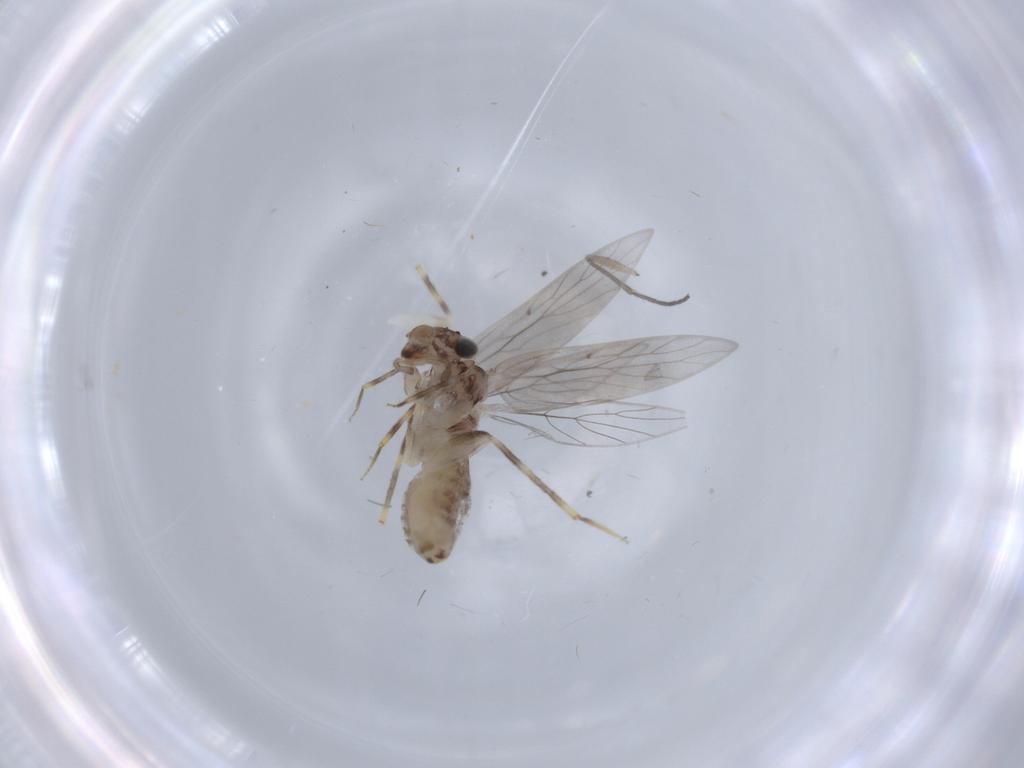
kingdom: Animalia
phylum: Arthropoda
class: Insecta
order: Psocodea
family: Lepidopsocidae
